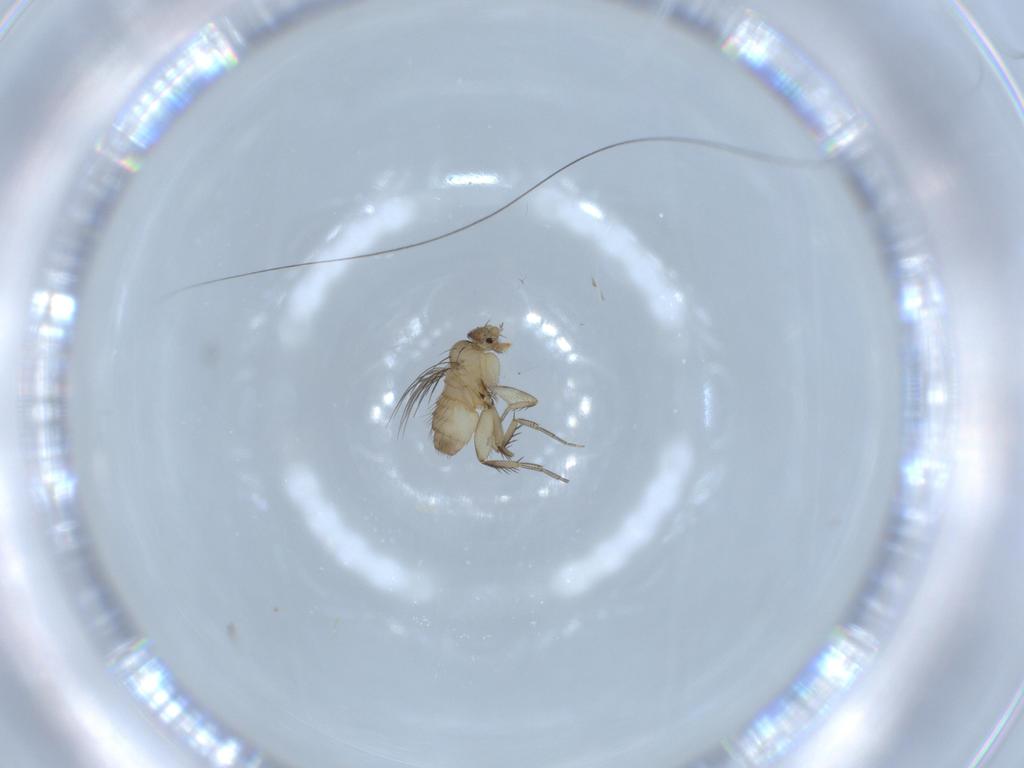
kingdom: Animalia
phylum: Arthropoda
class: Insecta
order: Diptera
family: Phoridae
